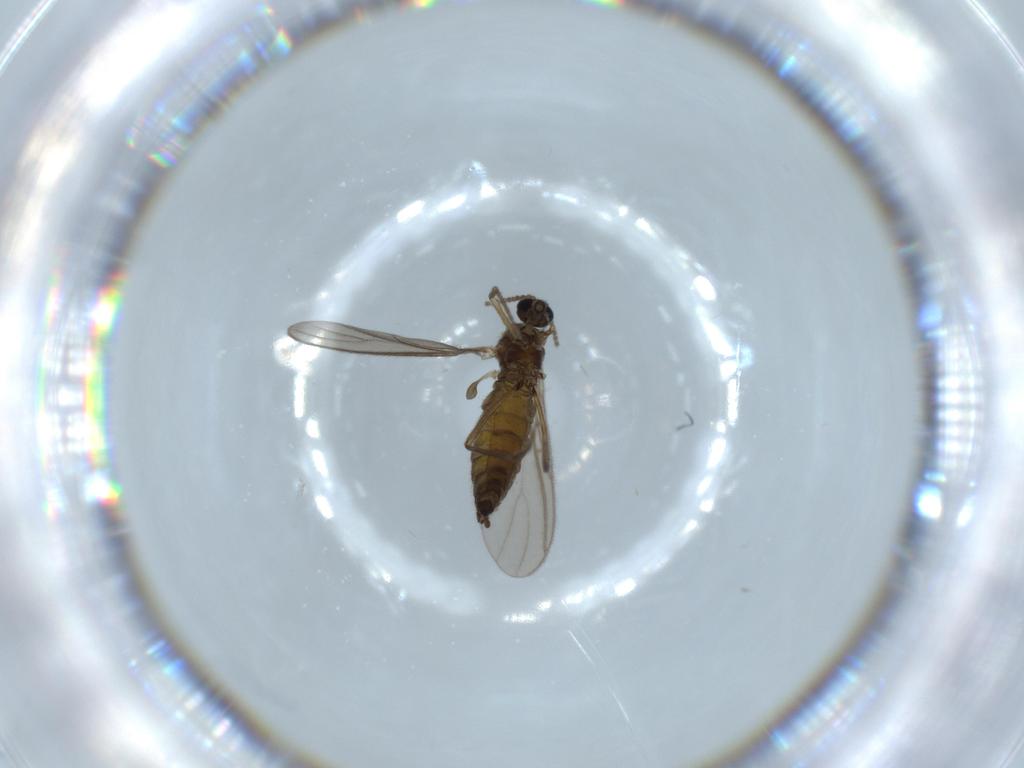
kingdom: Animalia
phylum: Arthropoda
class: Insecta
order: Diptera
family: Sciaridae
